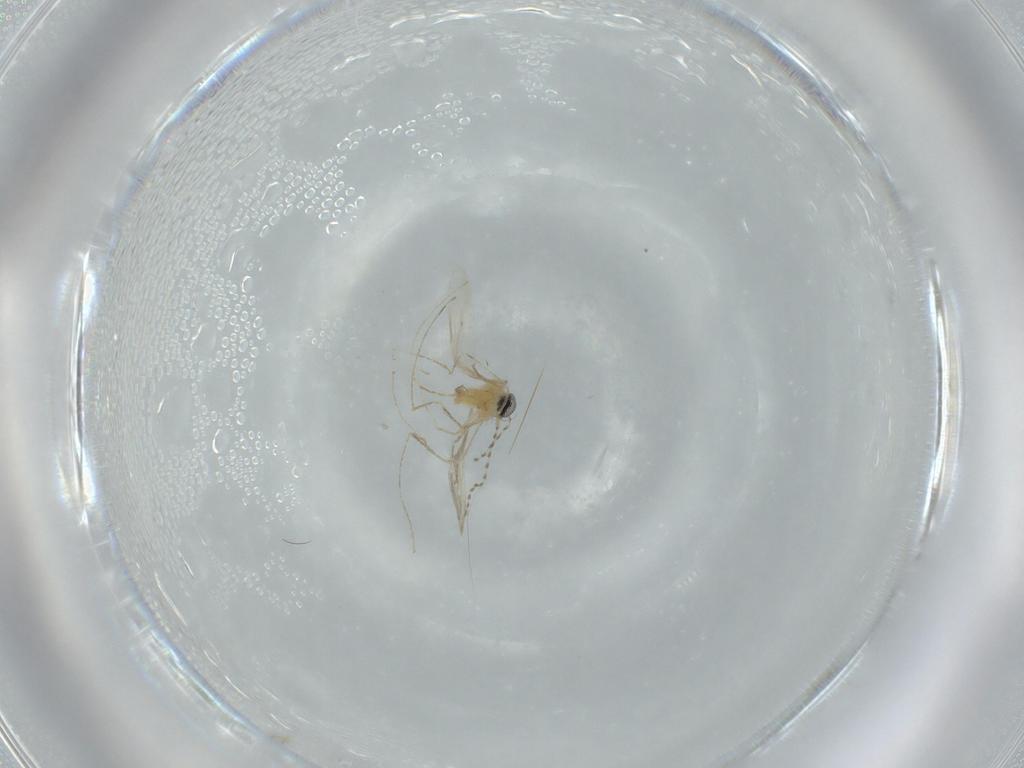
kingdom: Animalia
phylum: Arthropoda
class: Insecta
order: Diptera
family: Cecidomyiidae
